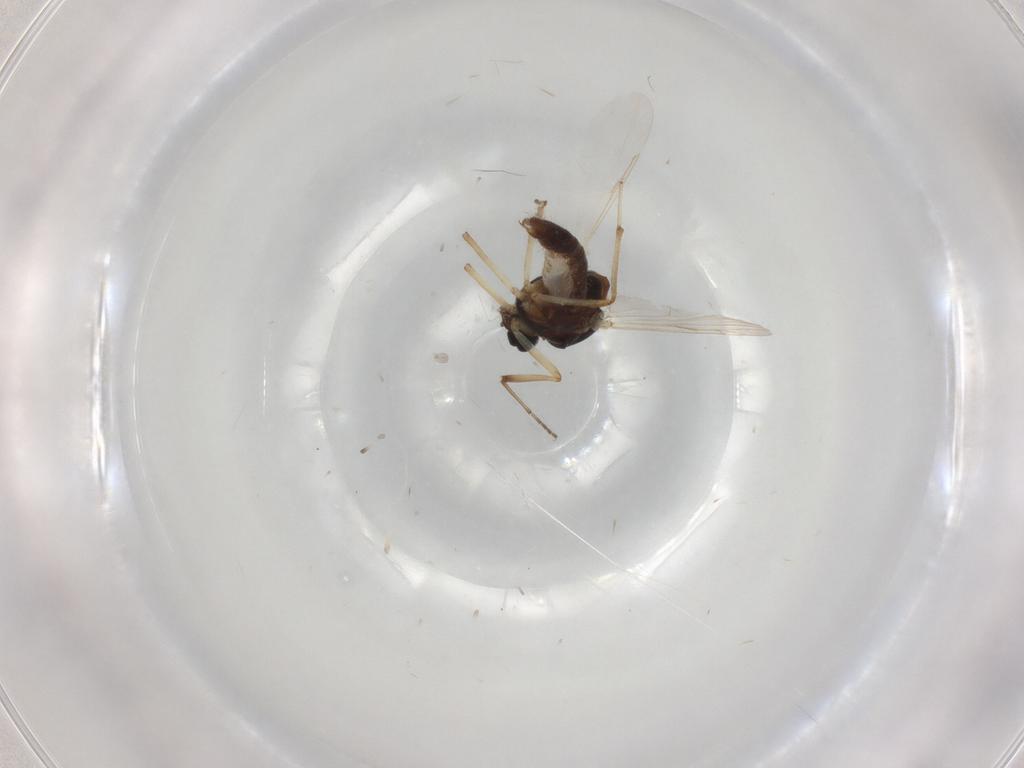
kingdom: Animalia
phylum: Arthropoda
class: Insecta
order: Diptera
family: Ceratopogonidae
